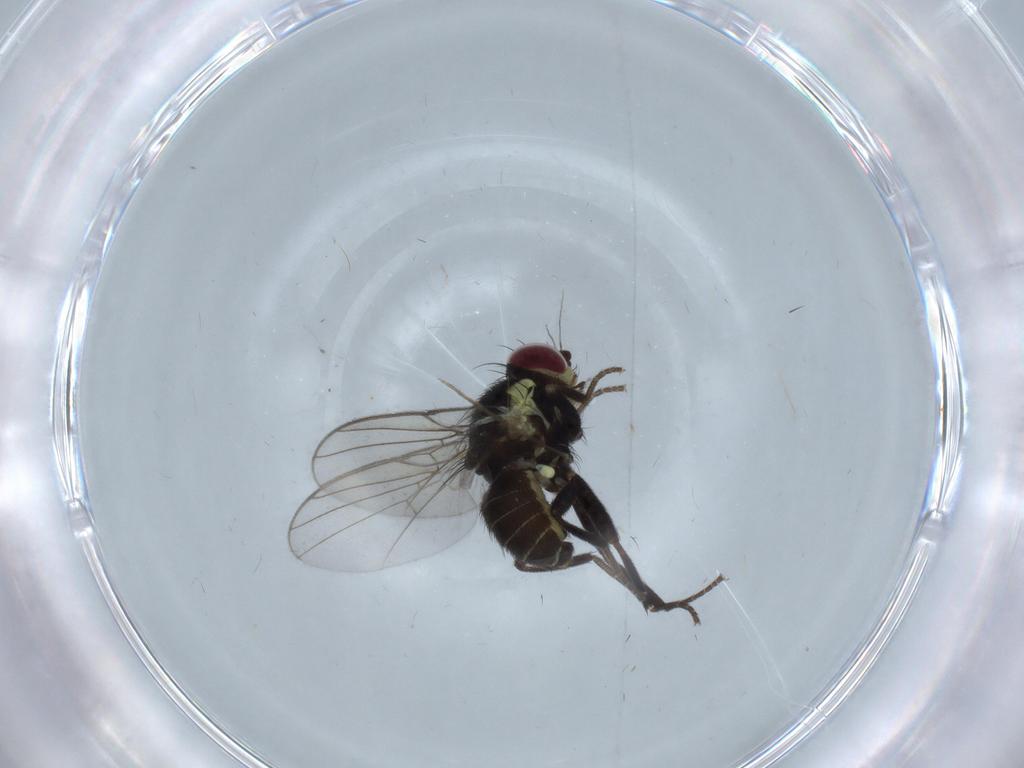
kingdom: Animalia
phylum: Arthropoda
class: Insecta
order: Diptera
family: Agromyzidae
